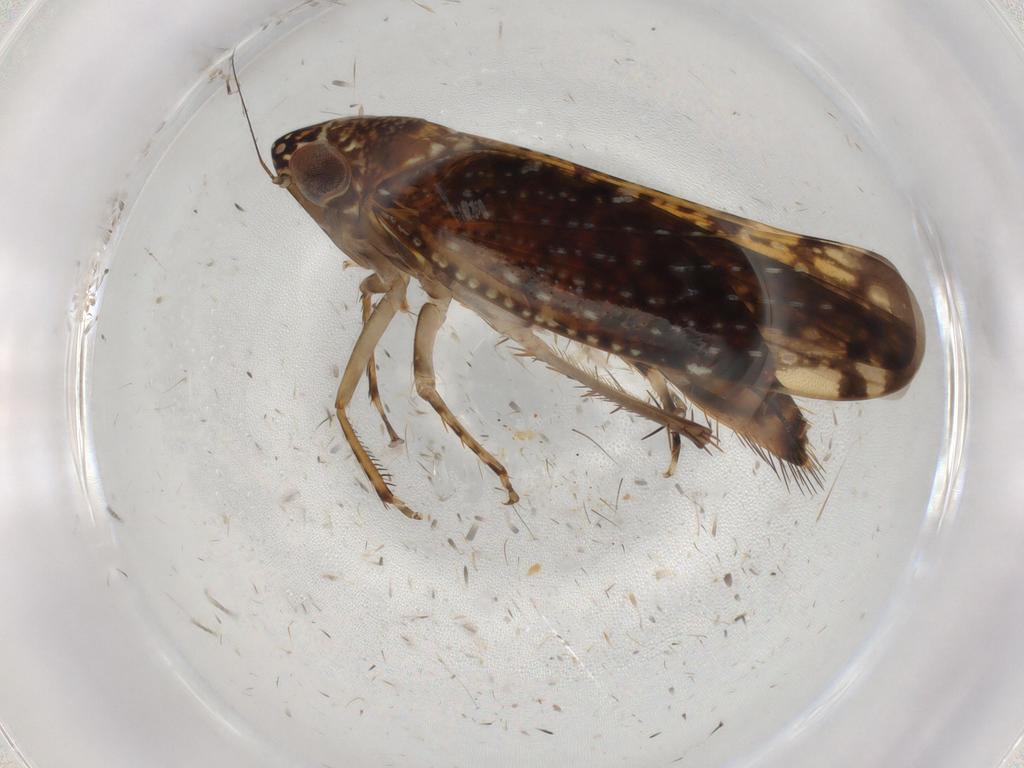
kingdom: Animalia
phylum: Arthropoda
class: Insecta
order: Hemiptera
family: Cicadellidae
